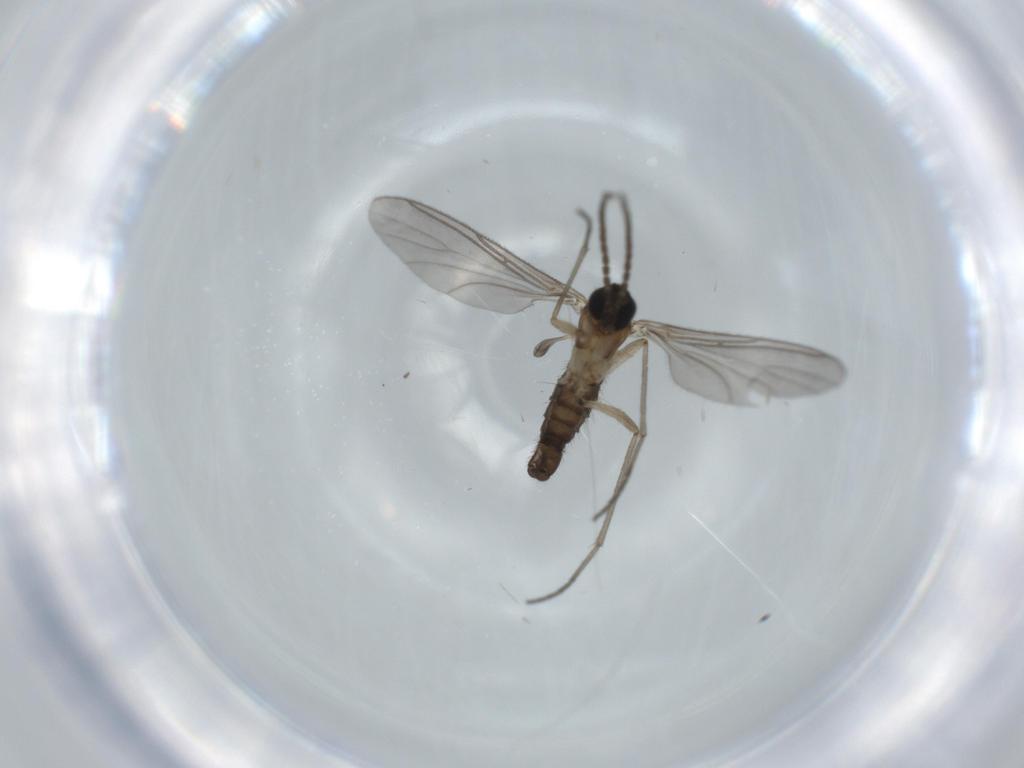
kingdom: Animalia
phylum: Arthropoda
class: Insecta
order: Diptera
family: Sciaridae
